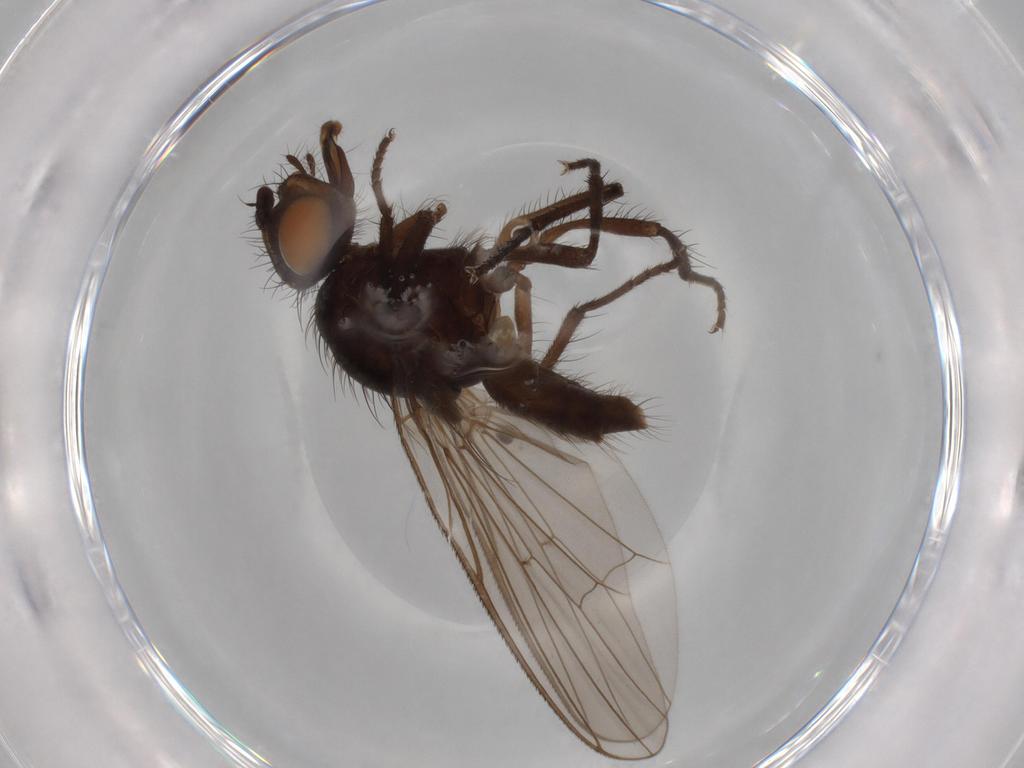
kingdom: Animalia
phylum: Arthropoda
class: Insecta
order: Diptera
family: Anthomyiidae
